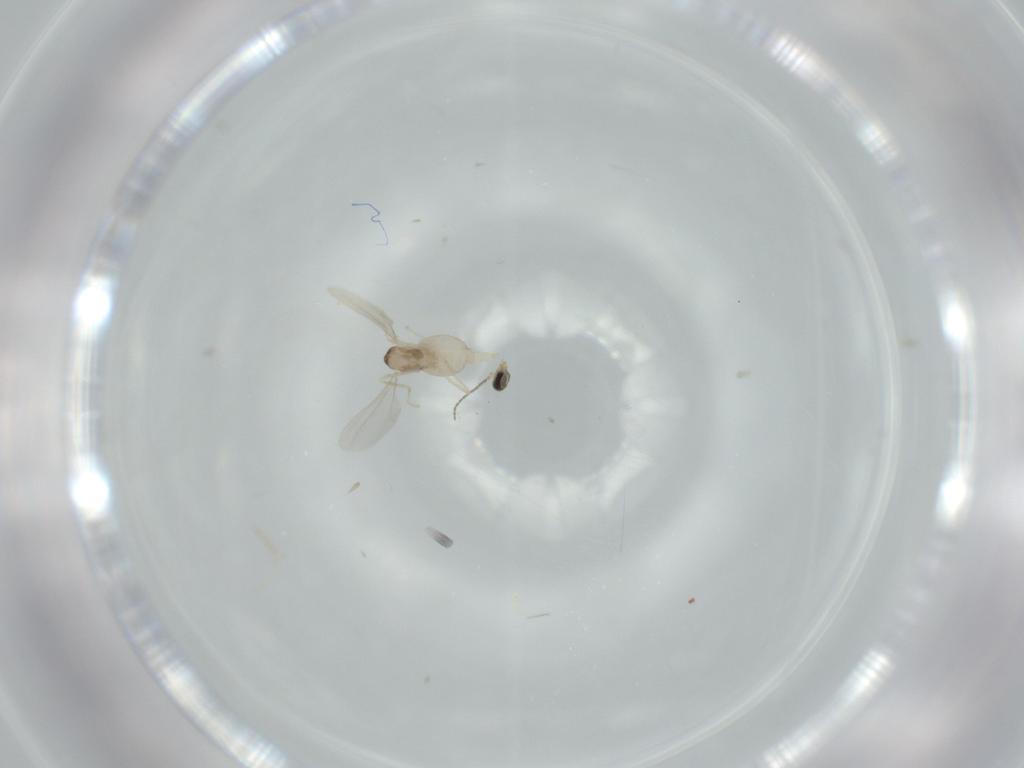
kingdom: Animalia
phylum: Arthropoda
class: Insecta
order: Diptera
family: Cecidomyiidae
